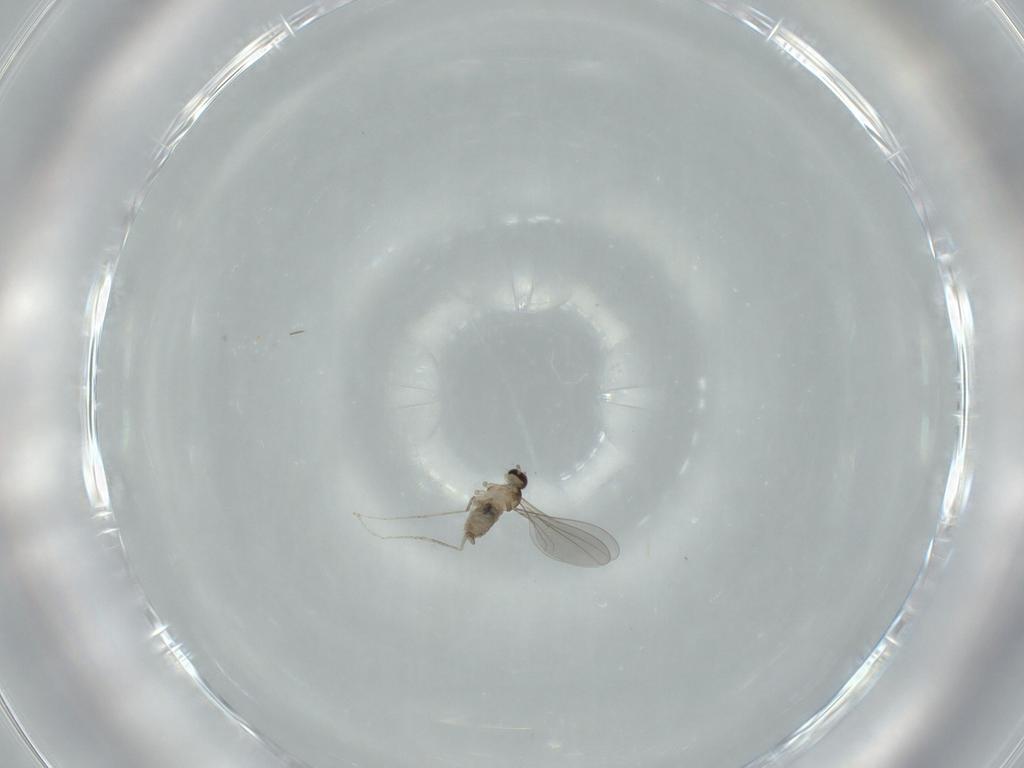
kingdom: Animalia
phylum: Arthropoda
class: Insecta
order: Diptera
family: Cecidomyiidae
